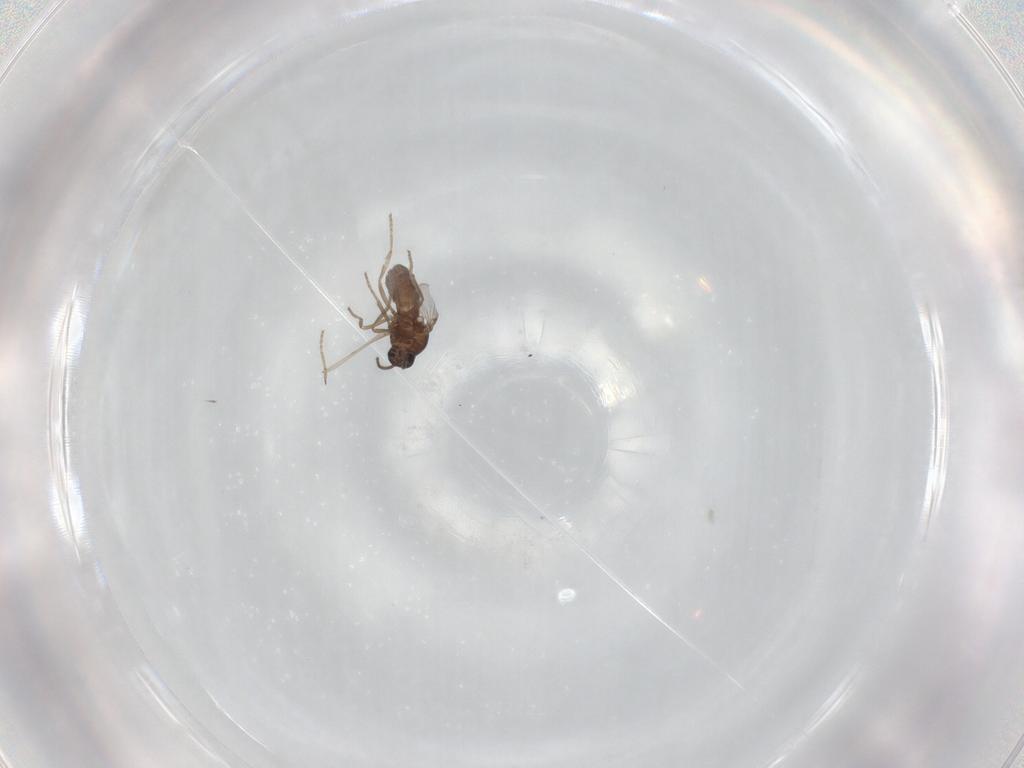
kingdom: Animalia
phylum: Arthropoda
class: Insecta
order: Diptera
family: Ceratopogonidae
